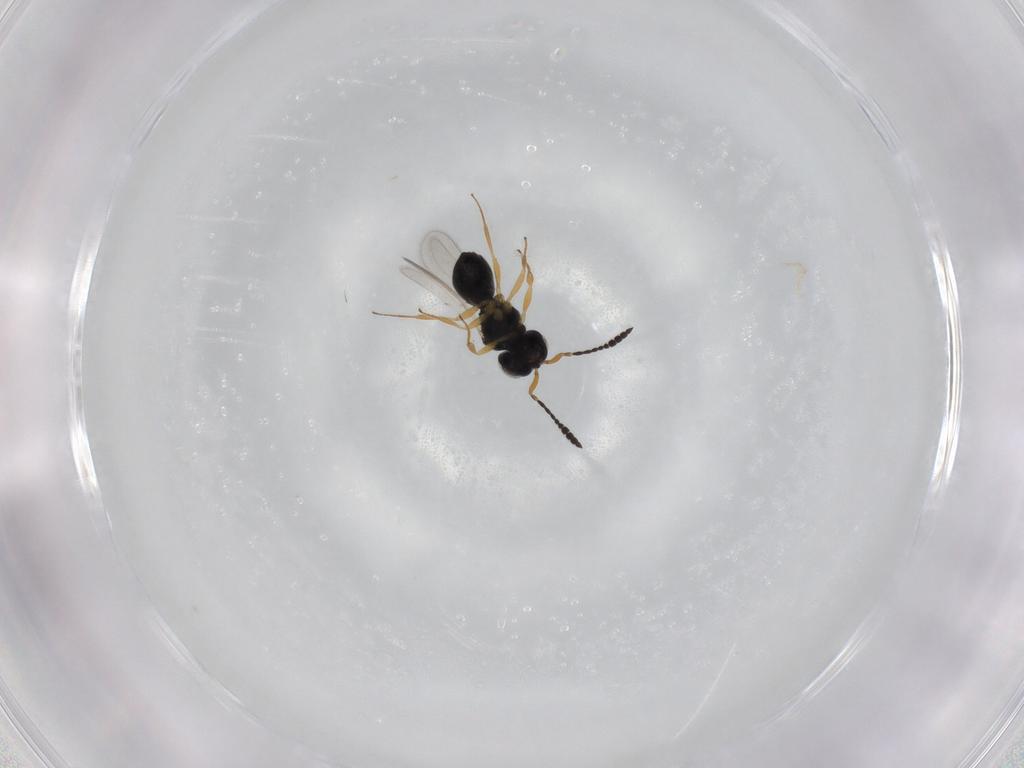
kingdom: Animalia
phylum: Arthropoda
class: Insecta
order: Hymenoptera
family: Scelionidae
